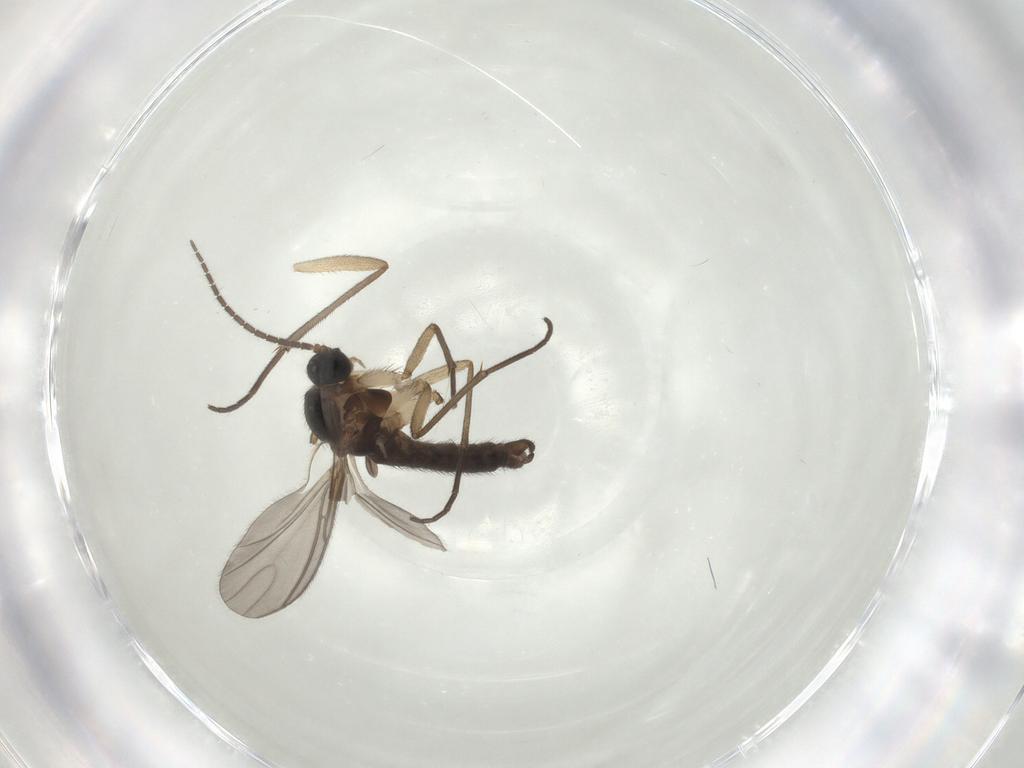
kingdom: Animalia
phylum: Arthropoda
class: Insecta
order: Diptera
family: Sciaridae
